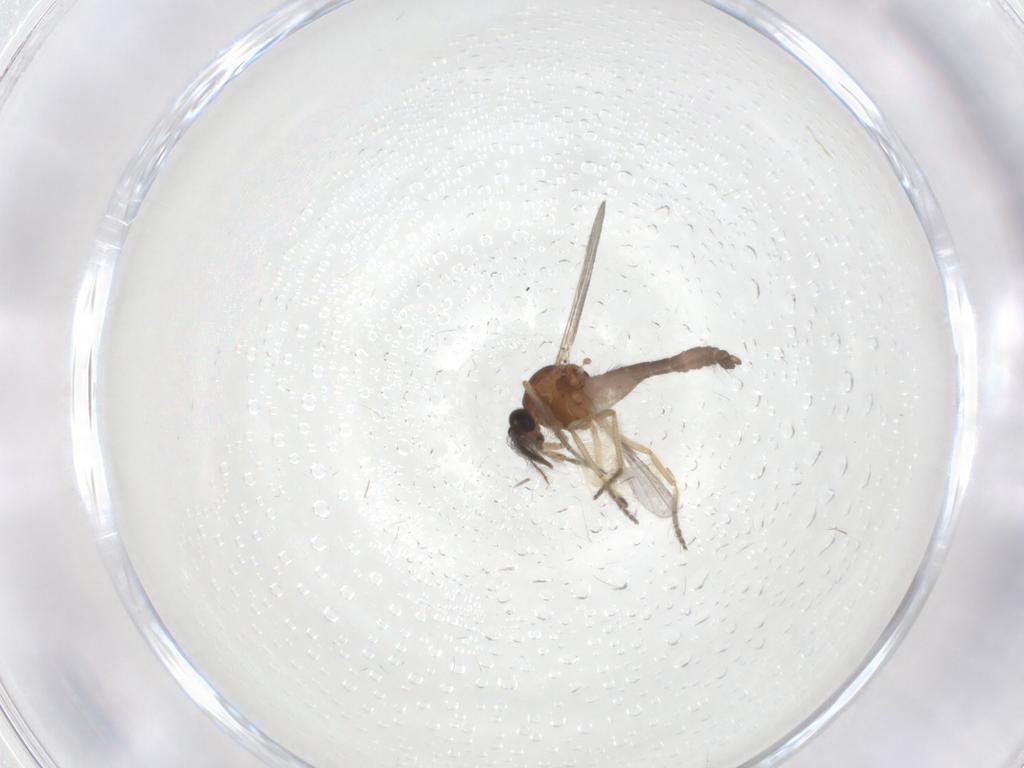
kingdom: Animalia
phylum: Arthropoda
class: Insecta
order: Diptera
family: Ceratopogonidae
